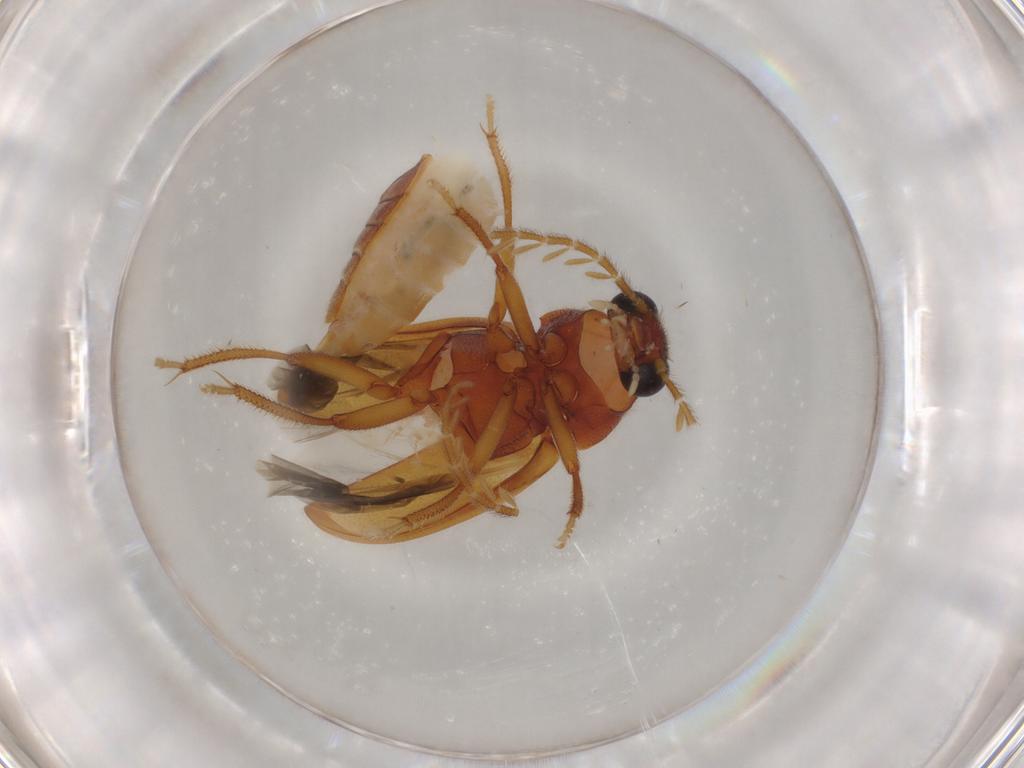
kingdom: Animalia
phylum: Arthropoda
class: Insecta
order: Coleoptera
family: Ptilodactylidae
